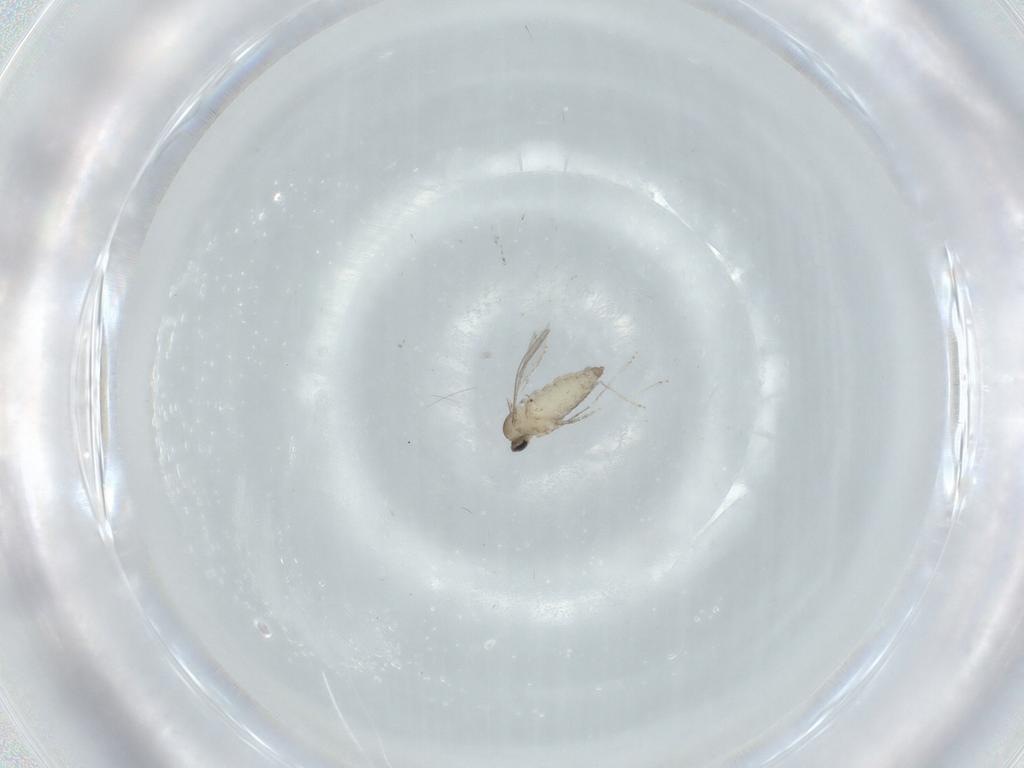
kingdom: Animalia
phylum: Arthropoda
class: Insecta
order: Diptera
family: Cecidomyiidae
